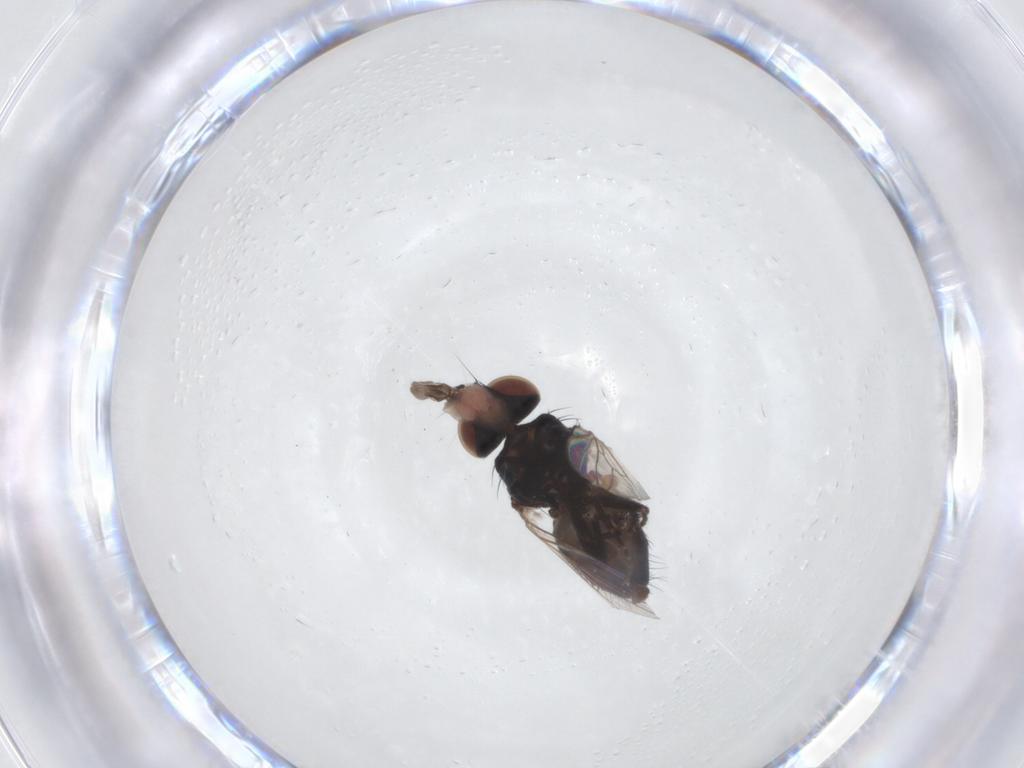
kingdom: Animalia
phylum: Arthropoda
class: Insecta
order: Diptera
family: Milichiidae
